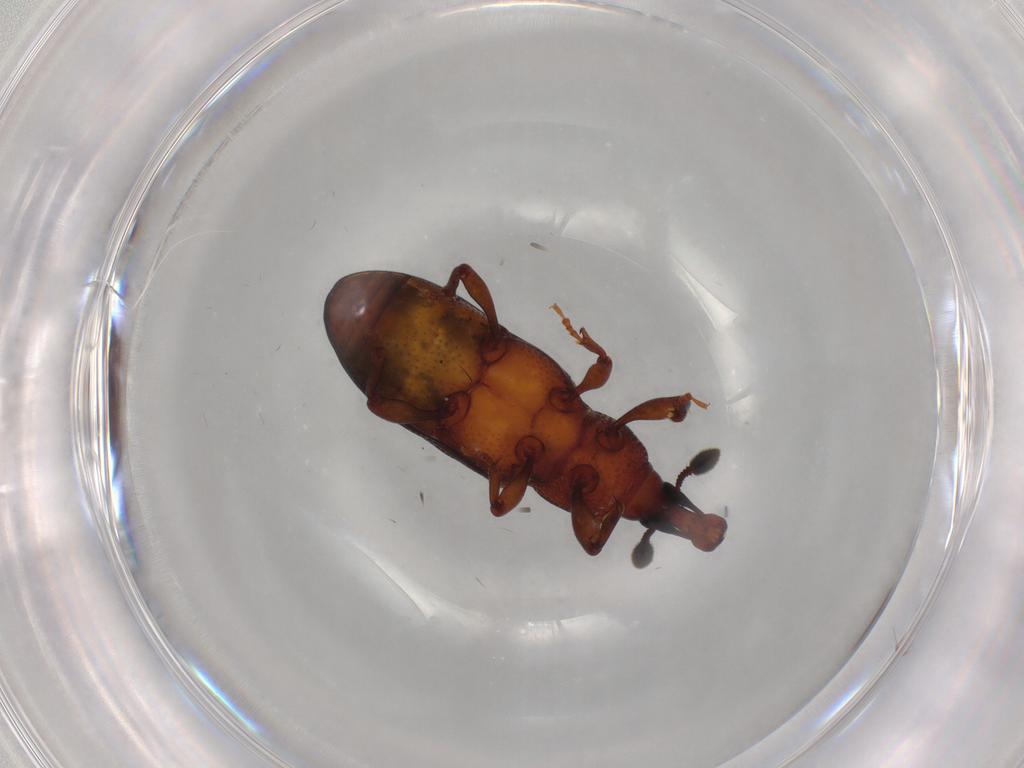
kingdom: Animalia
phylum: Arthropoda
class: Insecta
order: Coleoptera
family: Curculionidae
